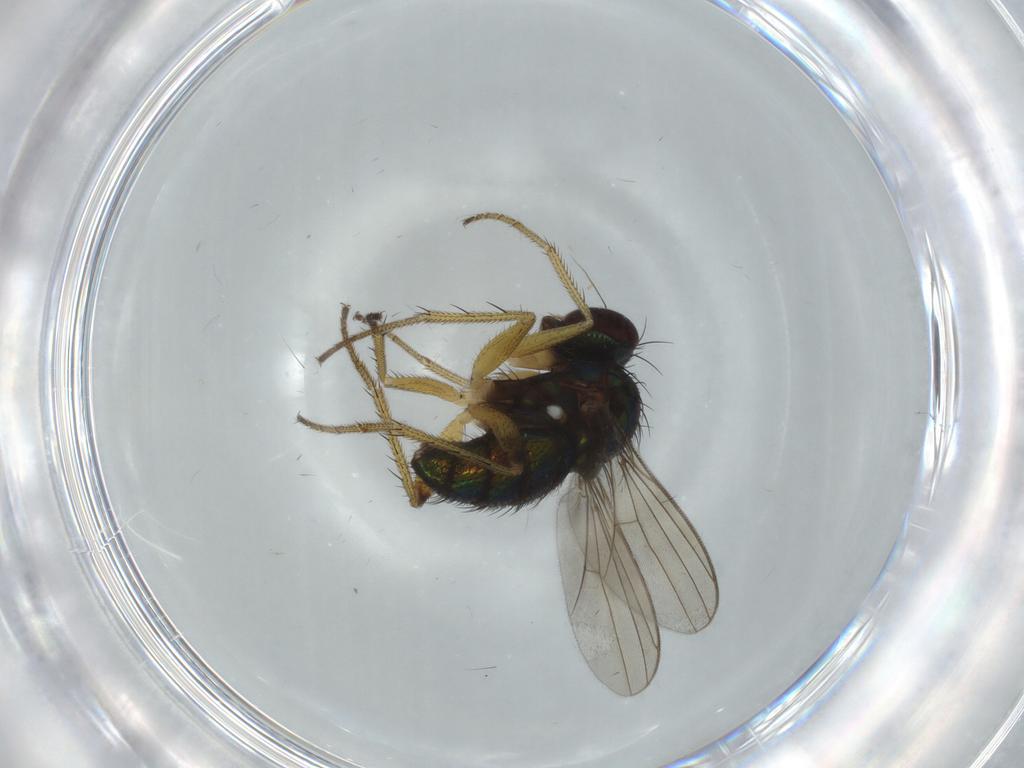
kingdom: Animalia
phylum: Arthropoda
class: Insecta
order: Diptera
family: Dolichopodidae
